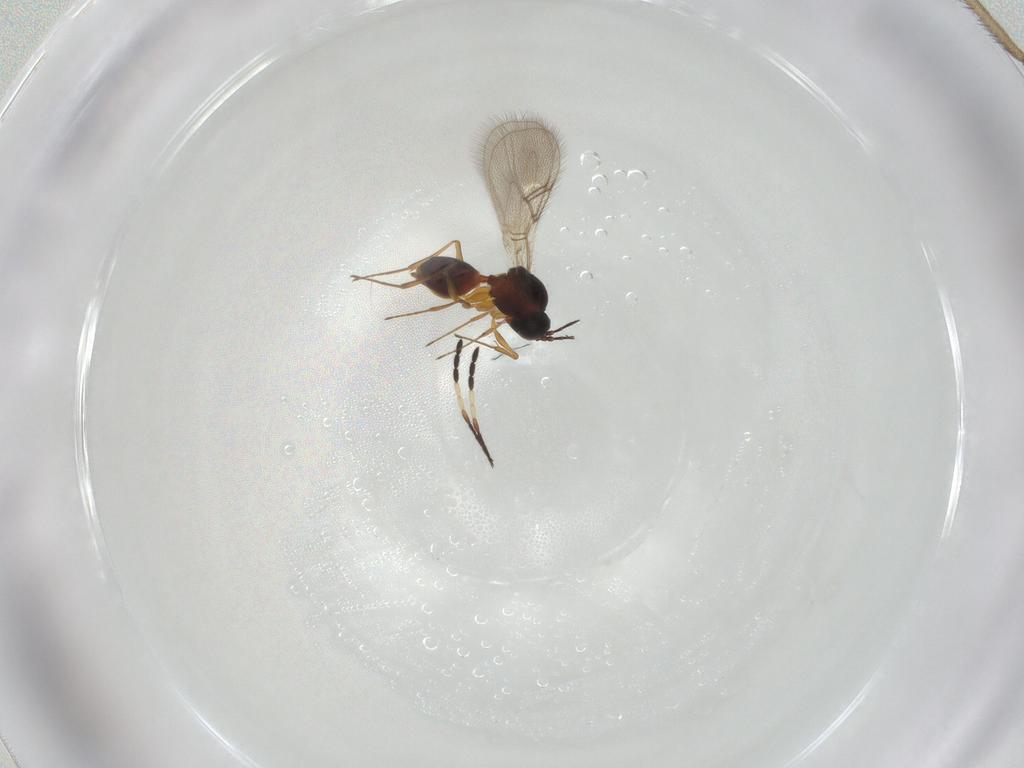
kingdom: Animalia
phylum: Arthropoda
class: Insecta
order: Hymenoptera
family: Figitidae
